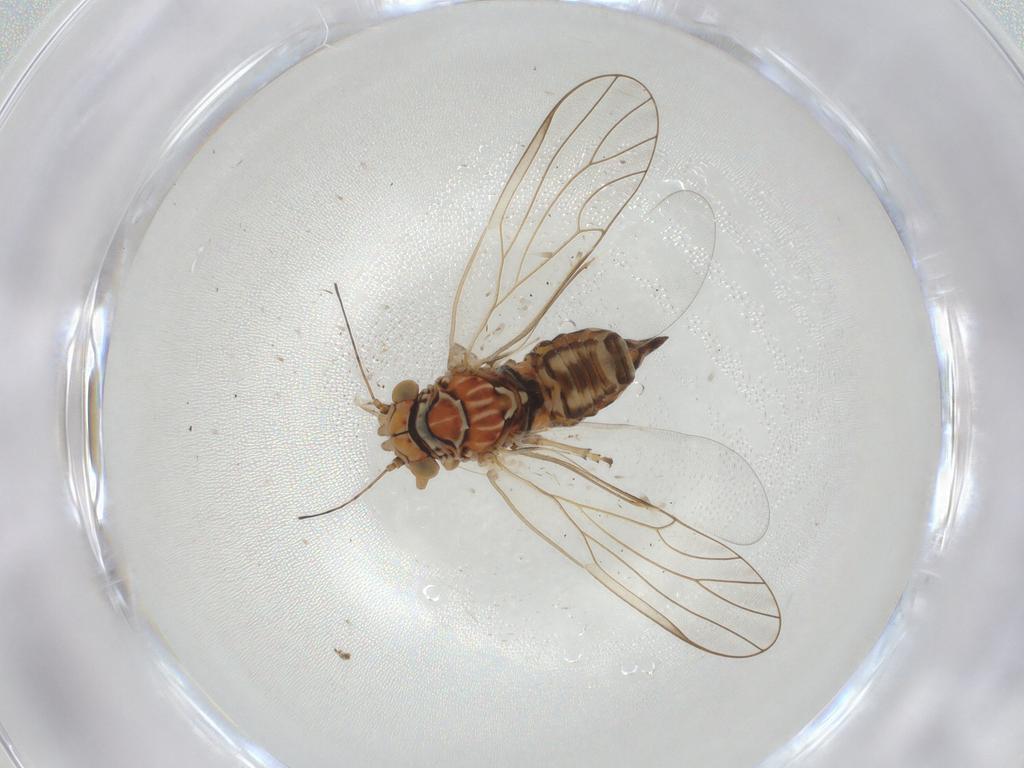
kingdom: Animalia
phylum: Arthropoda
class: Insecta
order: Hemiptera
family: Psyllidae
